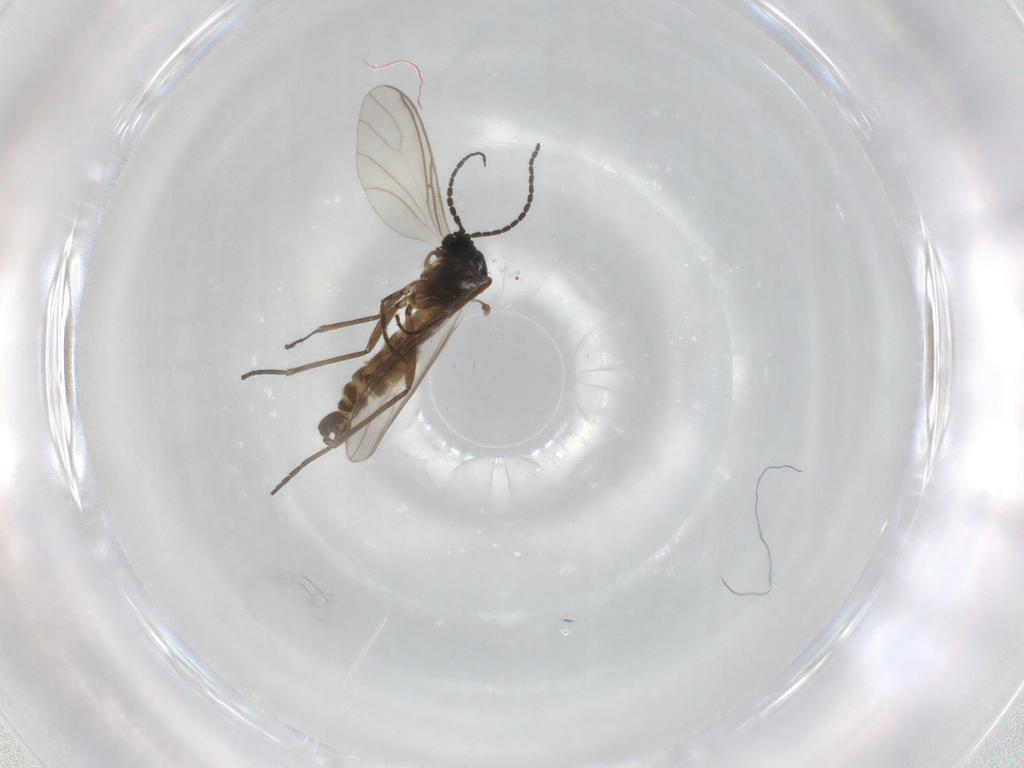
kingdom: Animalia
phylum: Arthropoda
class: Insecta
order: Diptera
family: Sciaridae
